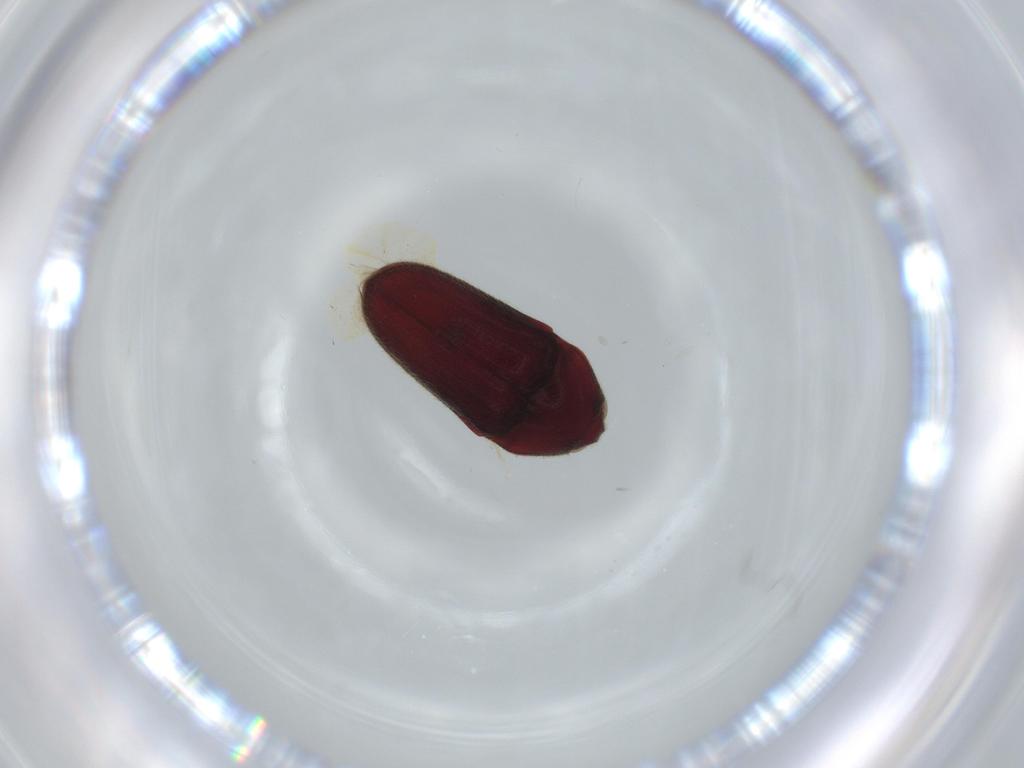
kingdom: Animalia
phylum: Arthropoda
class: Insecta
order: Coleoptera
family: Throscidae
